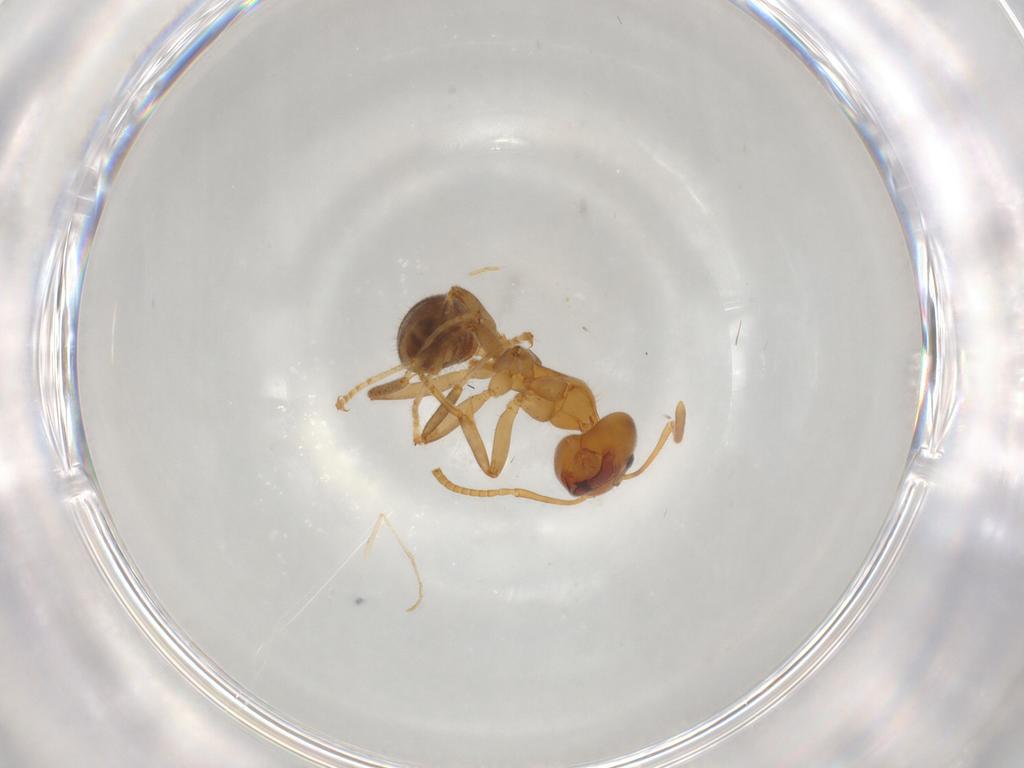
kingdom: Animalia
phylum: Arthropoda
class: Insecta
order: Hymenoptera
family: Formicidae
